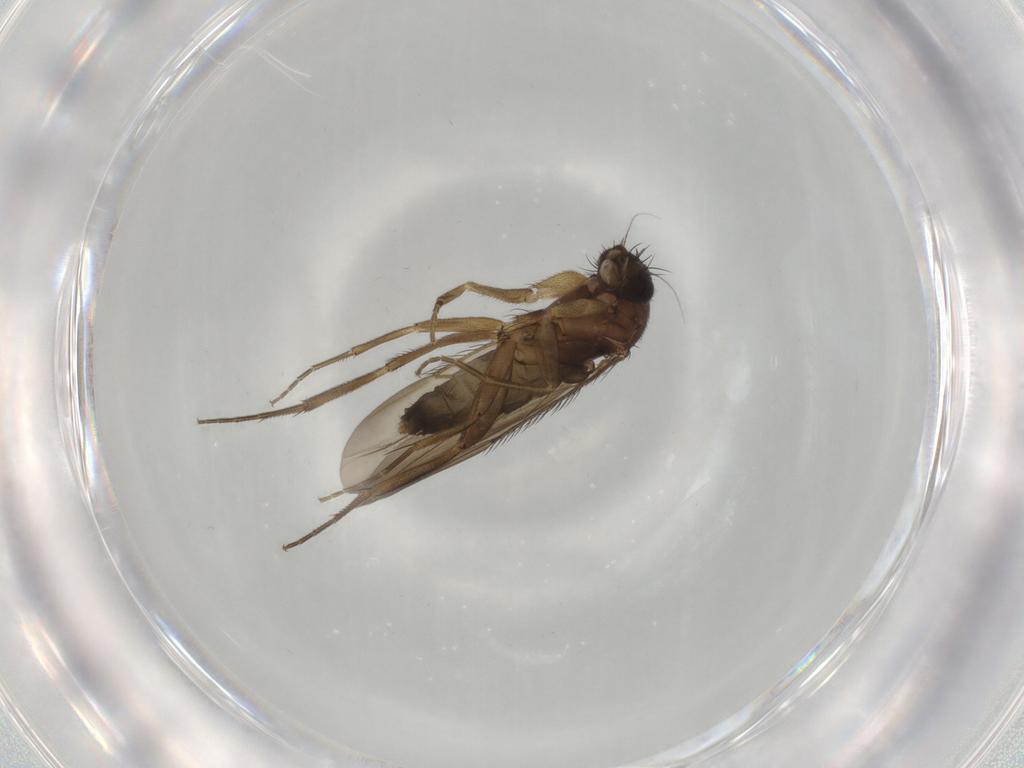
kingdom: Animalia
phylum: Arthropoda
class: Insecta
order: Diptera
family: Phoridae
